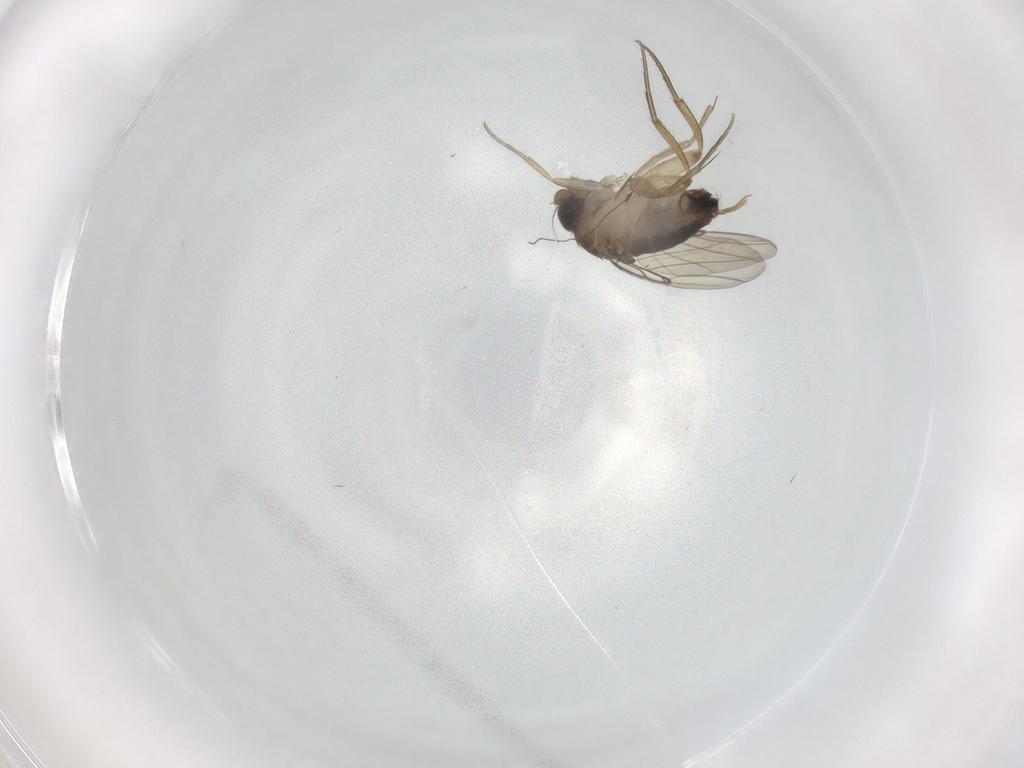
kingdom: Animalia
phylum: Arthropoda
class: Insecta
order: Diptera
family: Phoridae
